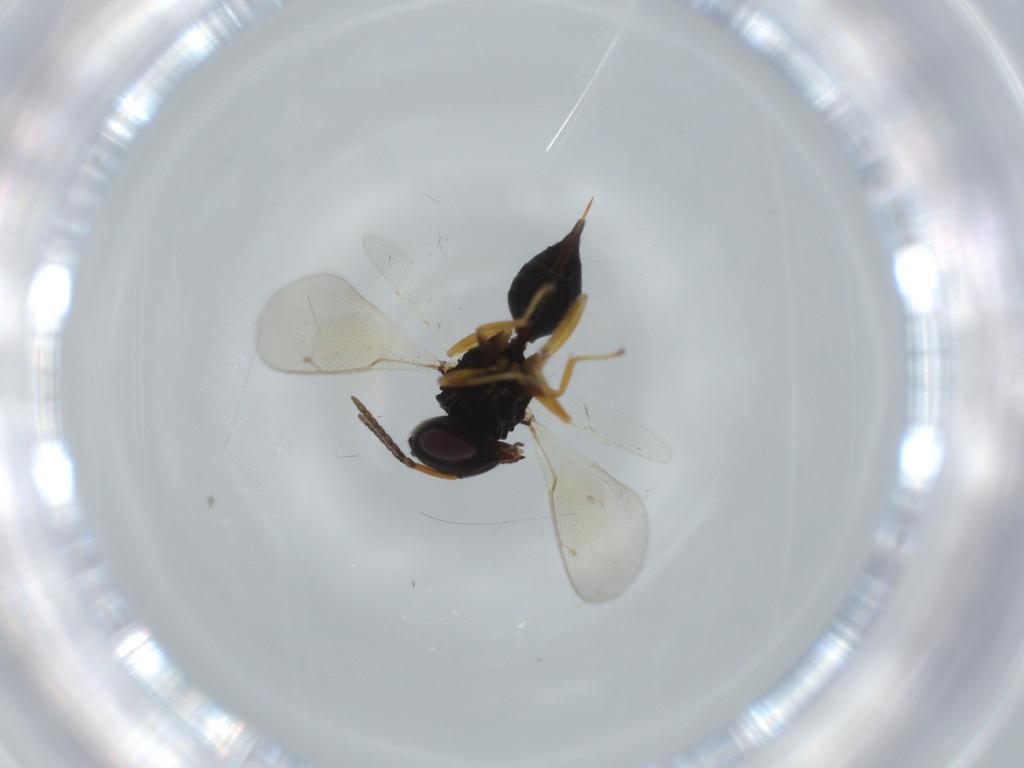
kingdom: Animalia
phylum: Arthropoda
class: Insecta
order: Hymenoptera
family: Pteromalidae
